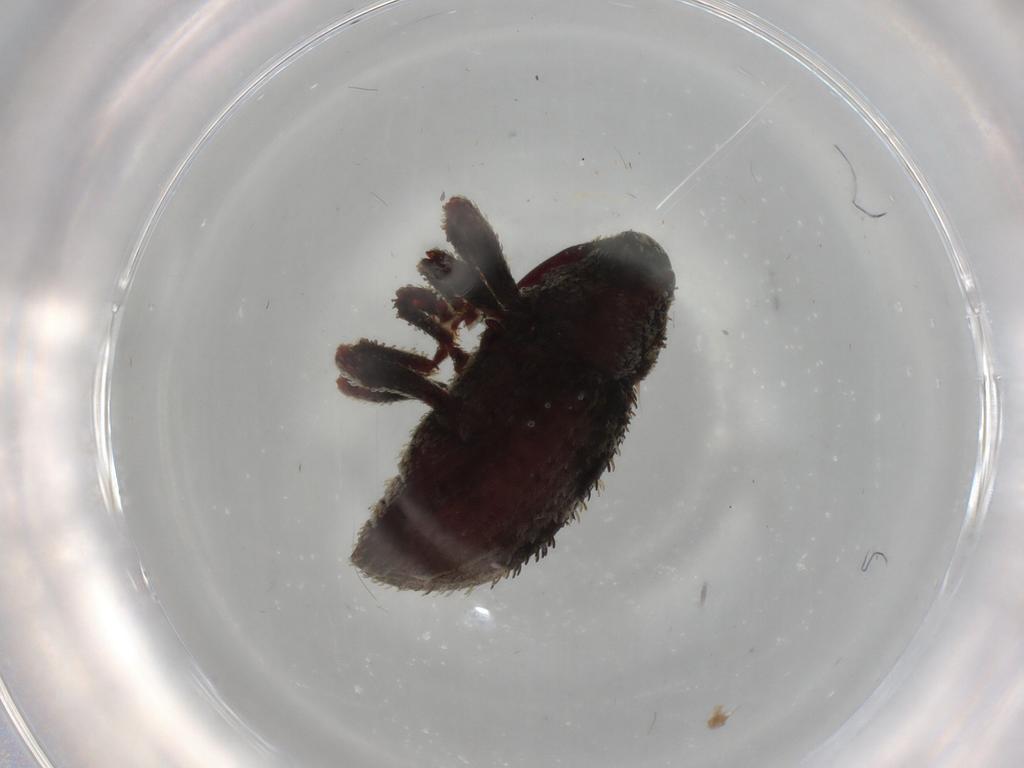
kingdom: Animalia
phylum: Arthropoda
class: Insecta
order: Coleoptera
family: Curculionidae
